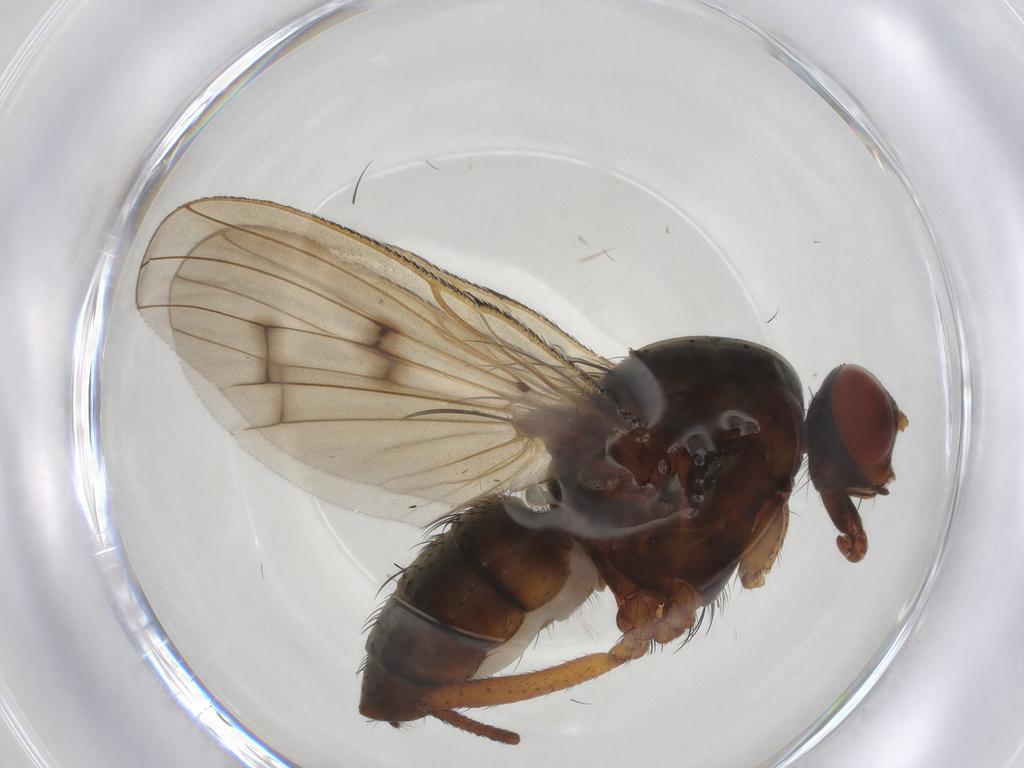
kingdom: Animalia
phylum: Arthropoda
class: Insecta
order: Diptera
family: Anthomyiidae
